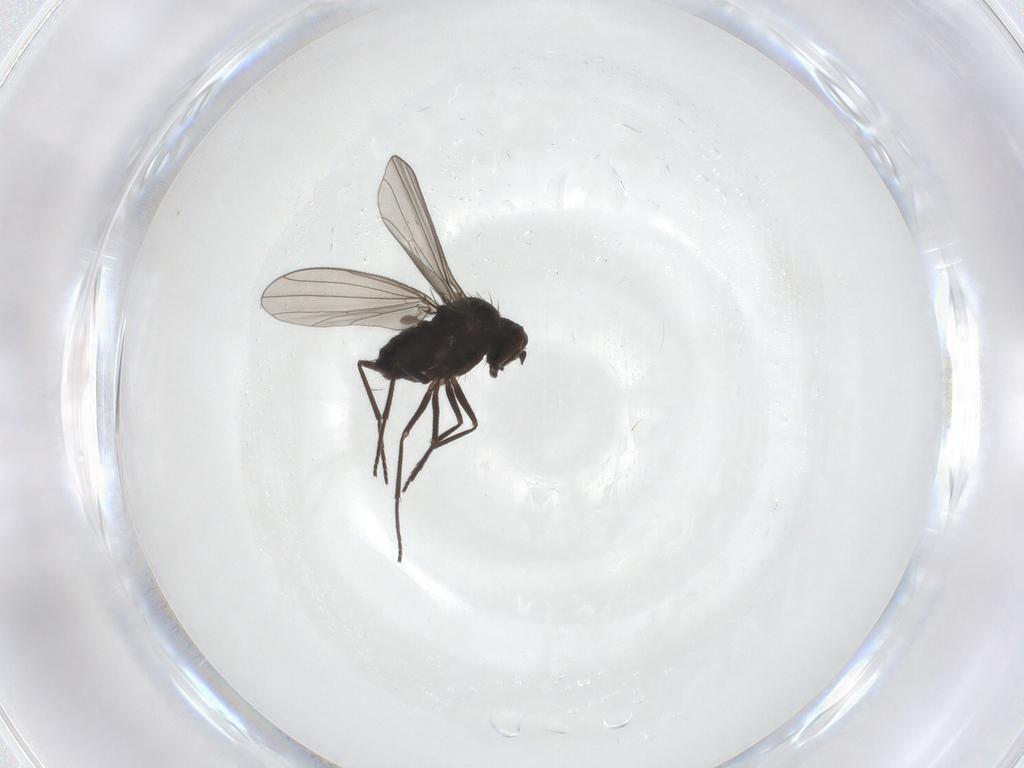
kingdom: Animalia
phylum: Arthropoda
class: Insecta
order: Diptera
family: Dolichopodidae
